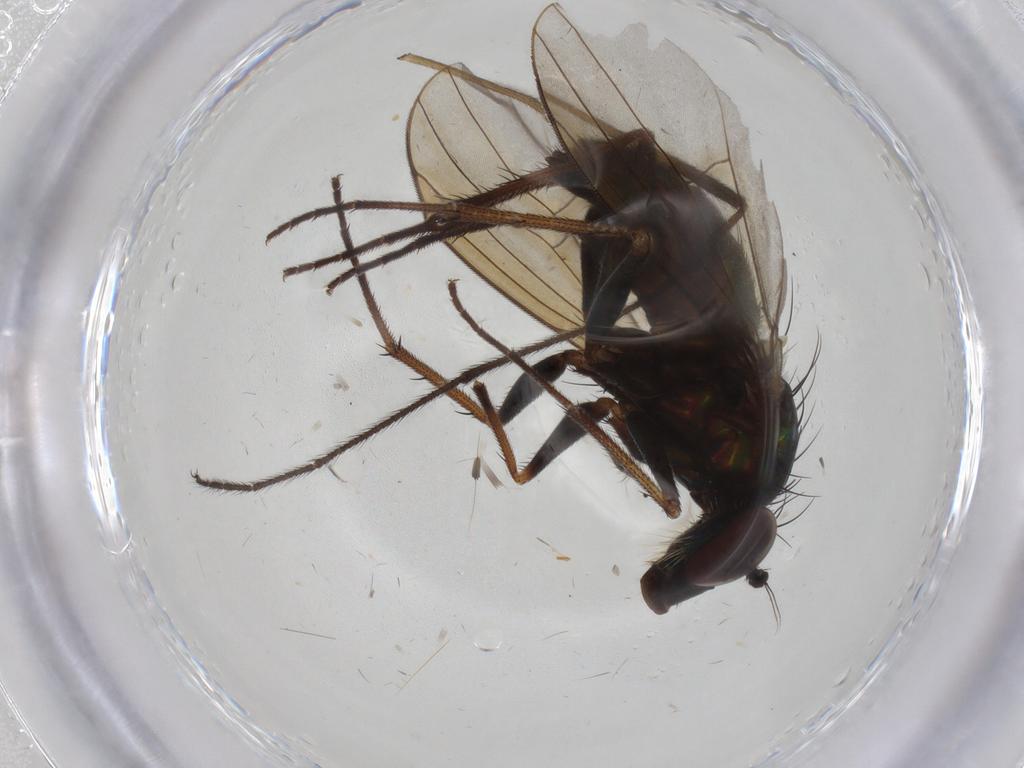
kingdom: Animalia
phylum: Arthropoda
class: Insecta
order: Diptera
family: Dolichopodidae
